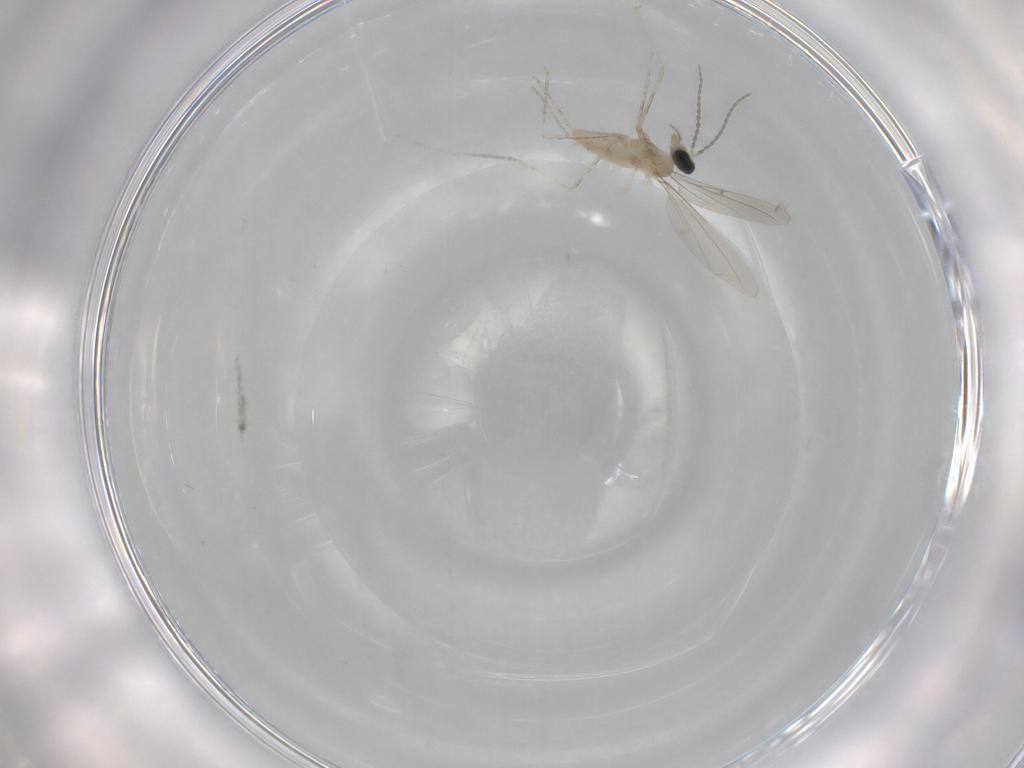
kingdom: Animalia
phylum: Arthropoda
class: Insecta
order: Diptera
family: Cecidomyiidae
